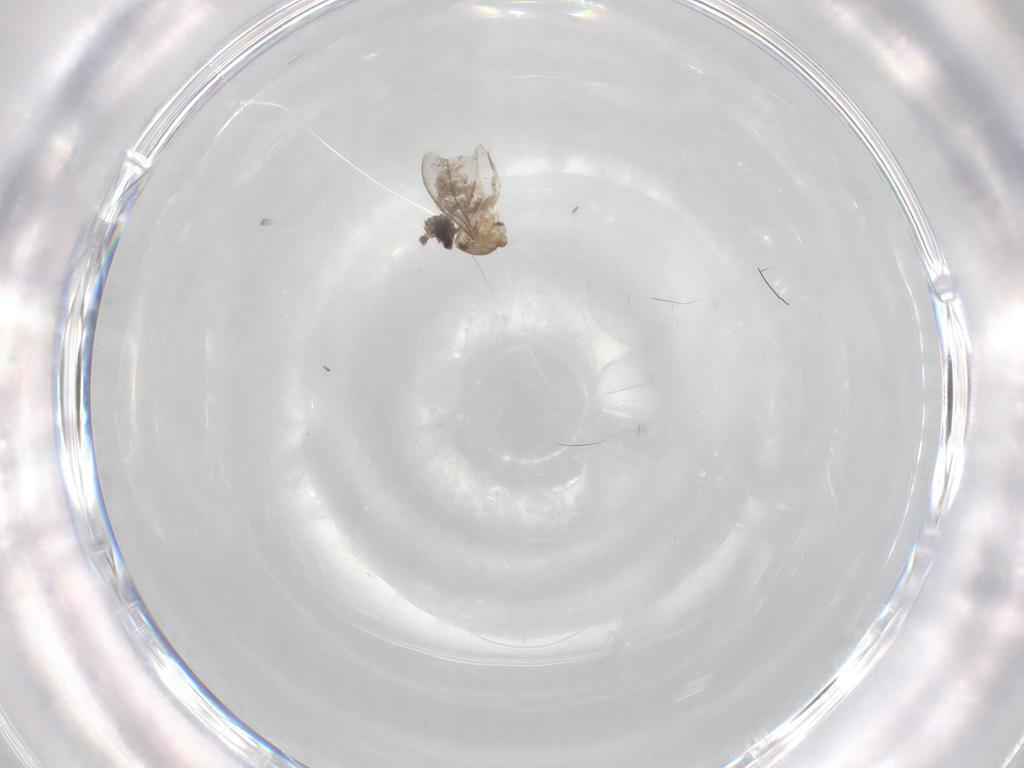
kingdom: Animalia
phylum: Arthropoda
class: Insecta
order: Diptera
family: Cecidomyiidae
